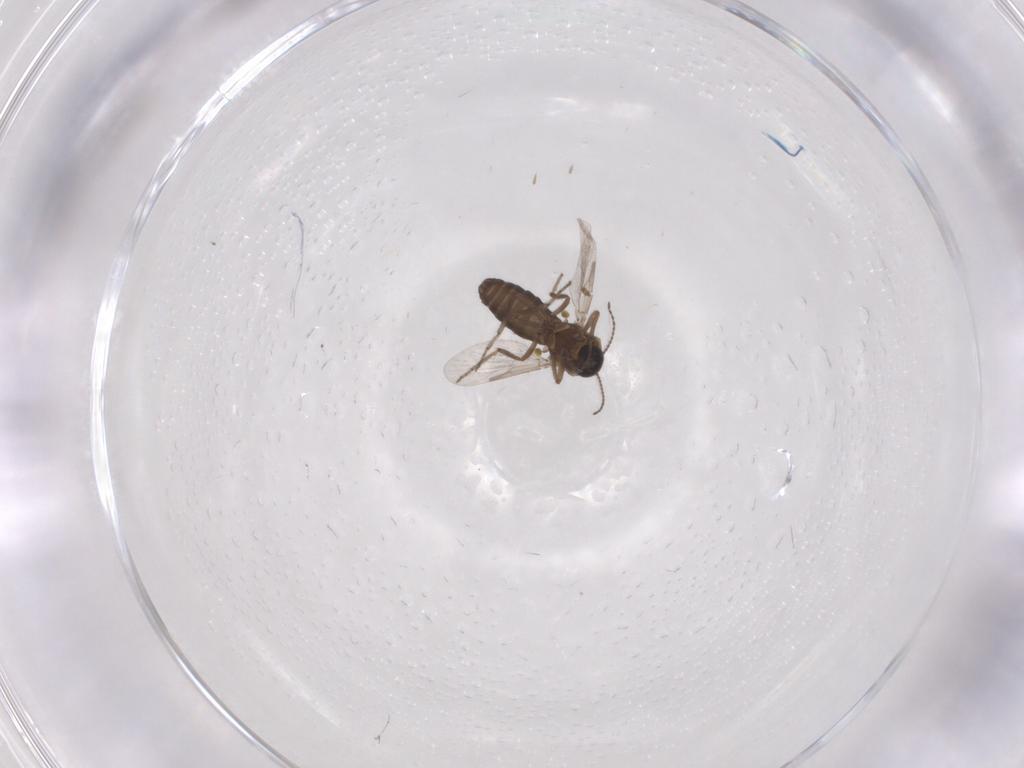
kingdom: Animalia
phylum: Arthropoda
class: Insecta
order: Diptera
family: Ceratopogonidae
